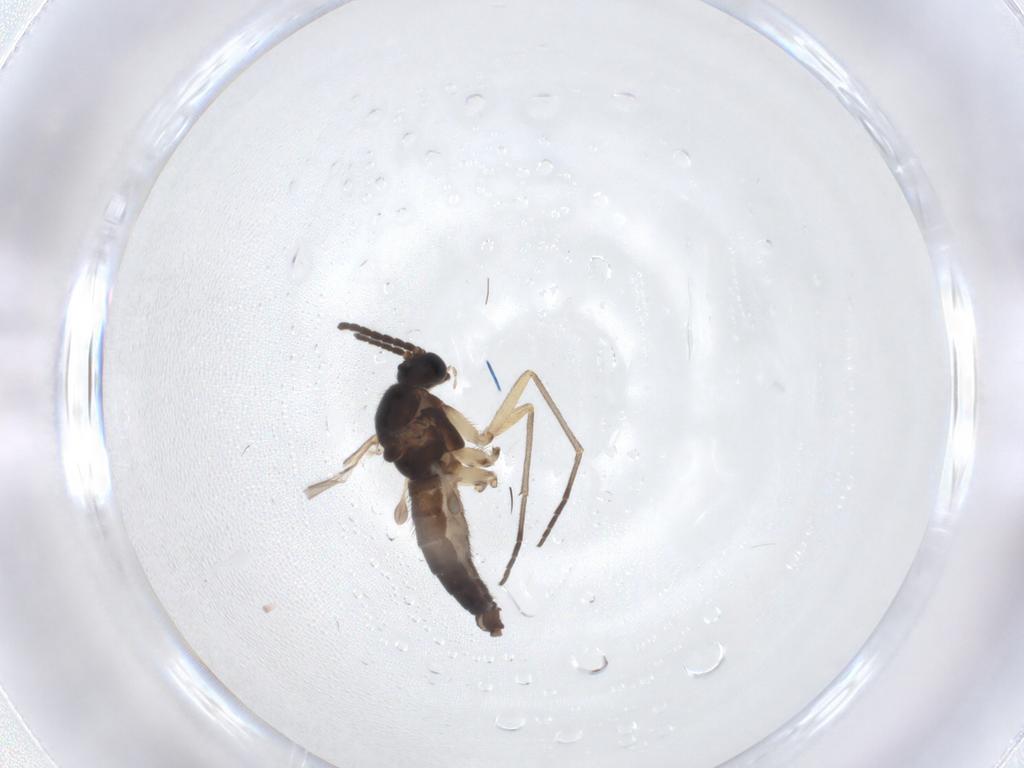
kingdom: Animalia
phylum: Arthropoda
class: Insecta
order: Diptera
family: Sciaridae
